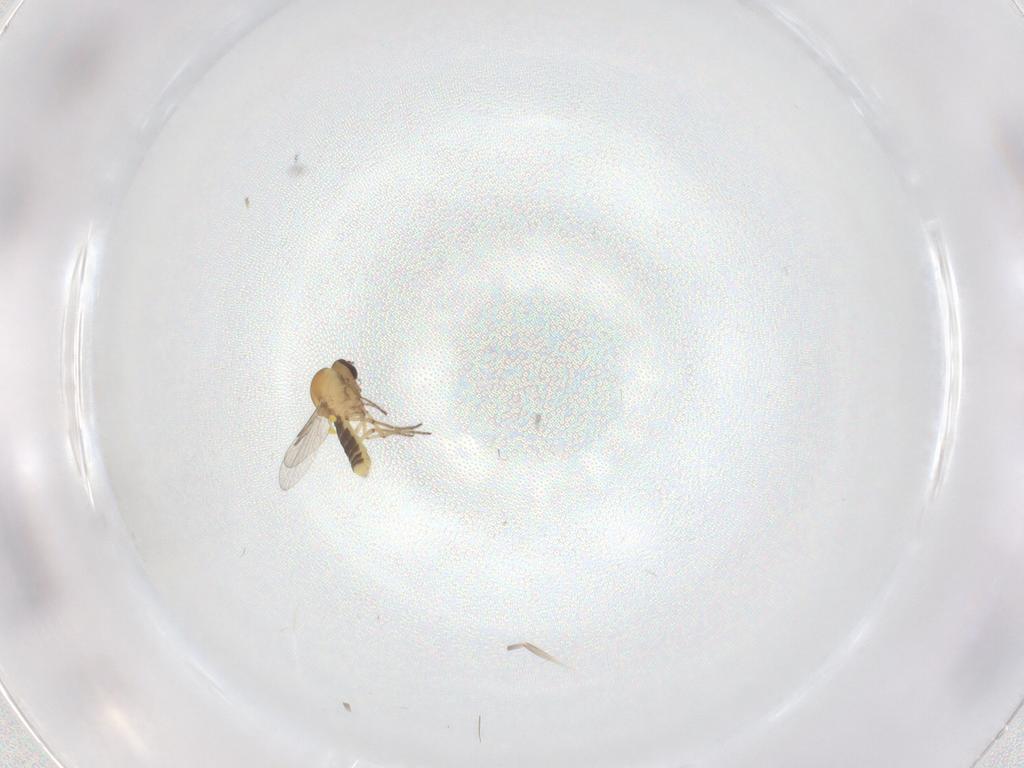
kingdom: Animalia
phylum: Arthropoda
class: Insecta
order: Diptera
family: Ceratopogonidae
